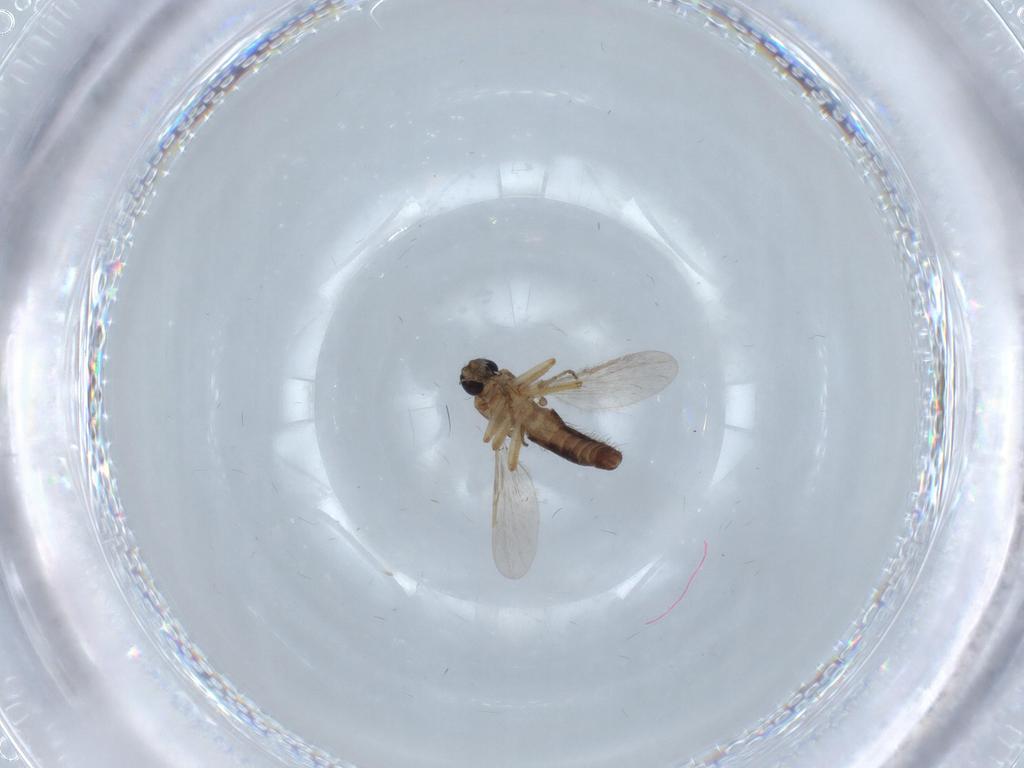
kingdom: Animalia
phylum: Arthropoda
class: Insecta
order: Diptera
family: Ceratopogonidae
